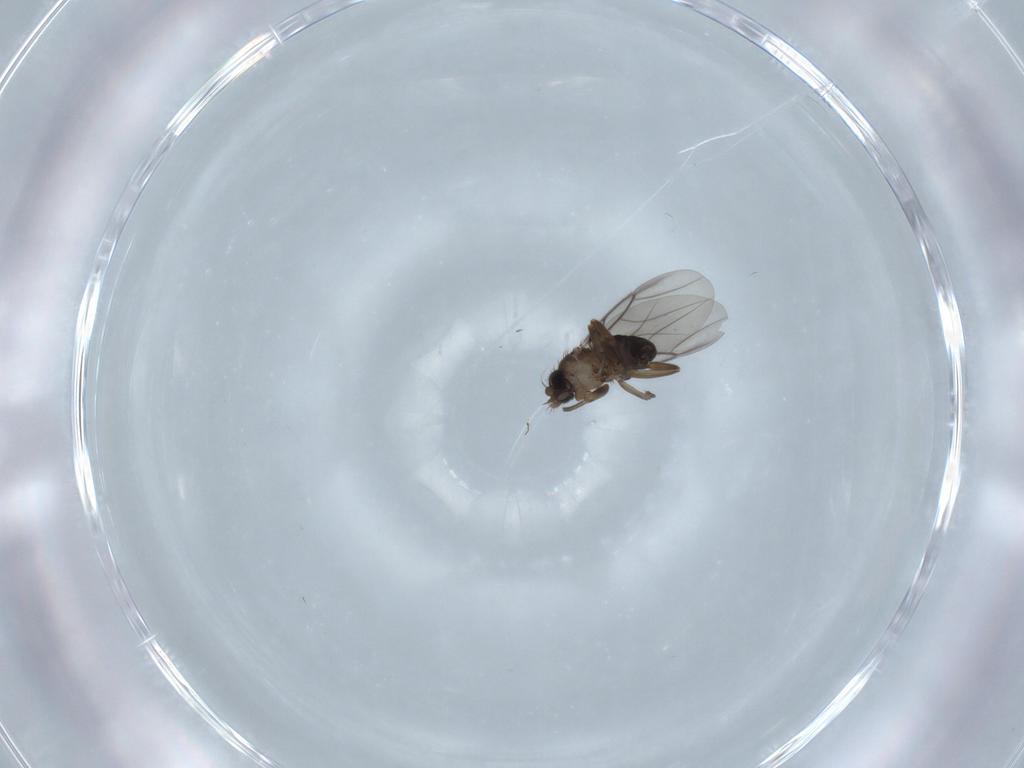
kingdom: Animalia
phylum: Arthropoda
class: Insecta
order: Diptera
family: Phoridae
